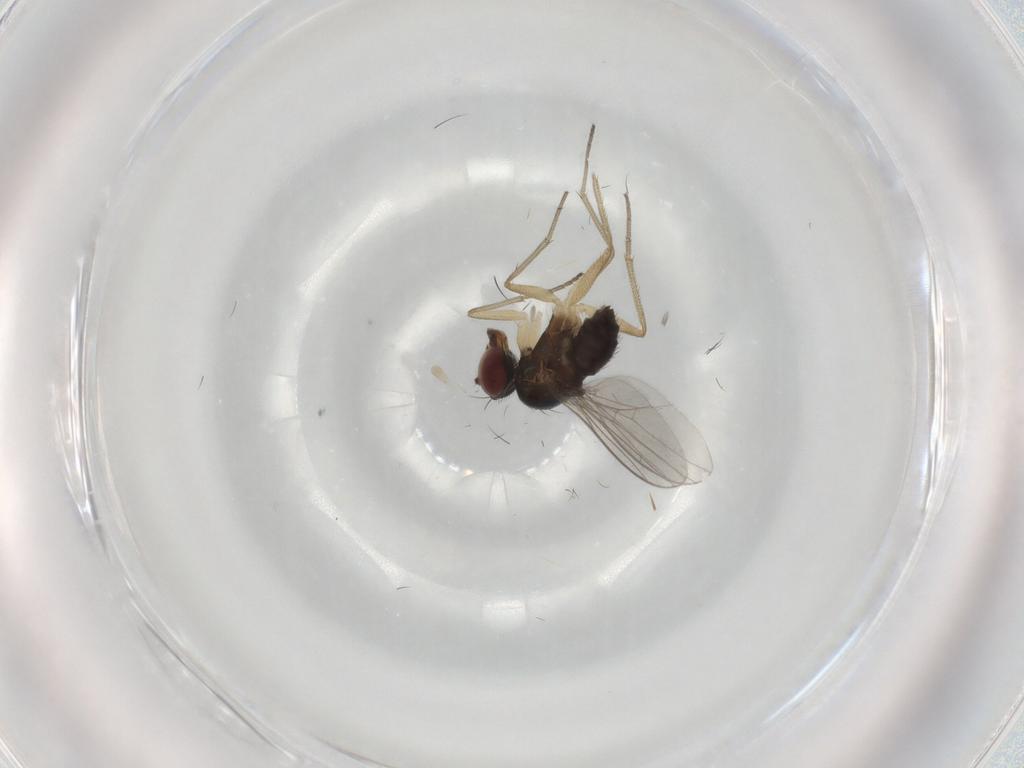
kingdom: Animalia
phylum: Arthropoda
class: Insecta
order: Diptera
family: Dolichopodidae
